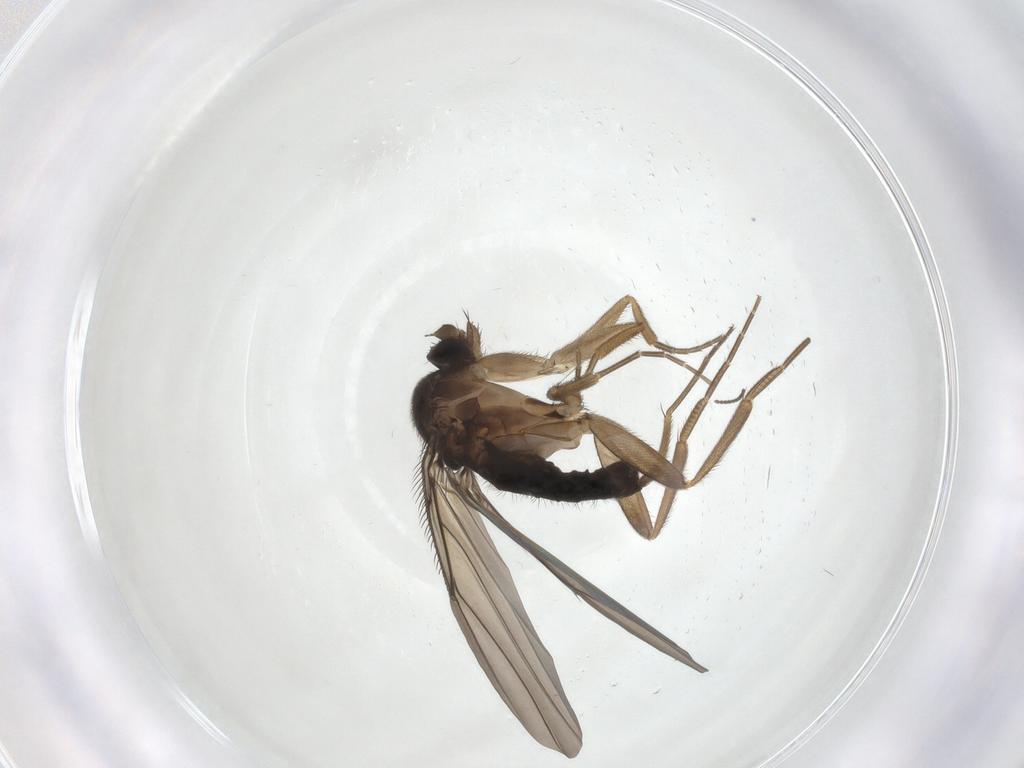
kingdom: Animalia
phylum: Arthropoda
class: Insecta
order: Diptera
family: Phoridae
